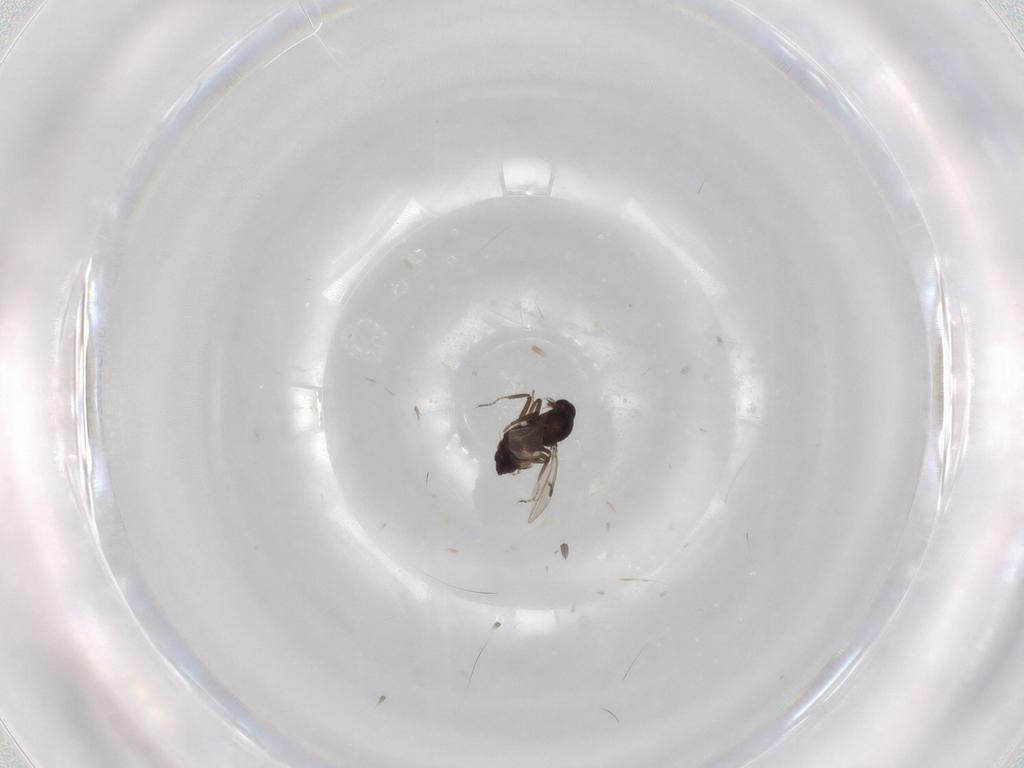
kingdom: Animalia
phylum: Arthropoda
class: Insecta
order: Diptera
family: Ceratopogonidae
